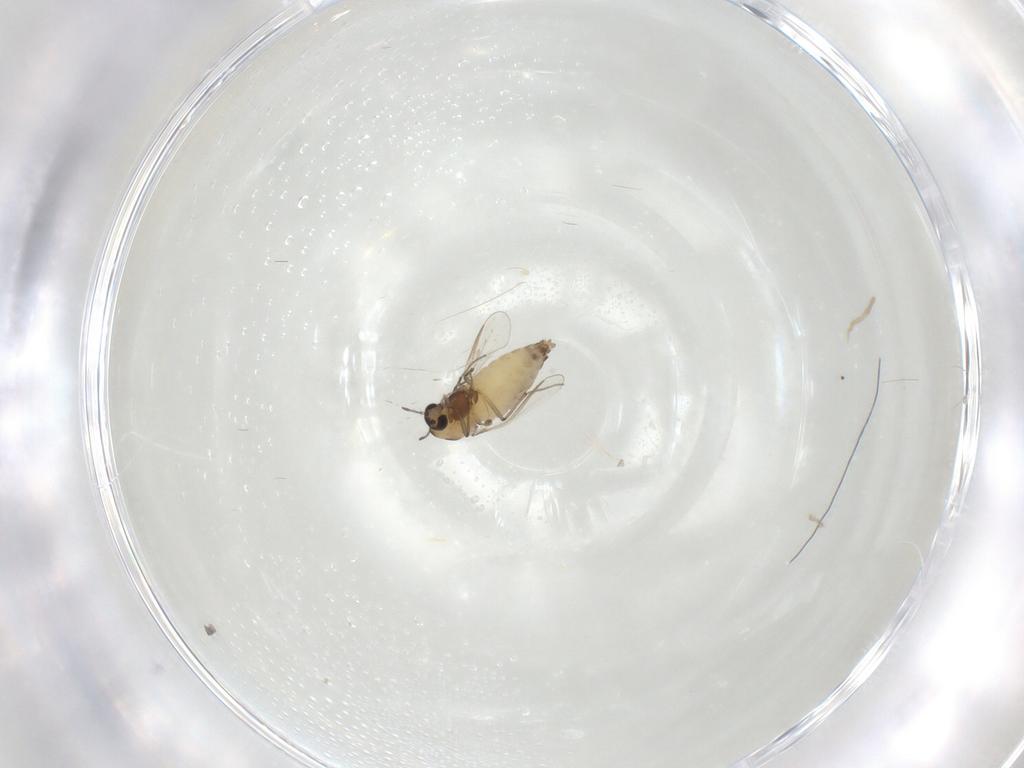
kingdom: Animalia
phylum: Arthropoda
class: Insecta
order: Diptera
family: Chironomidae
